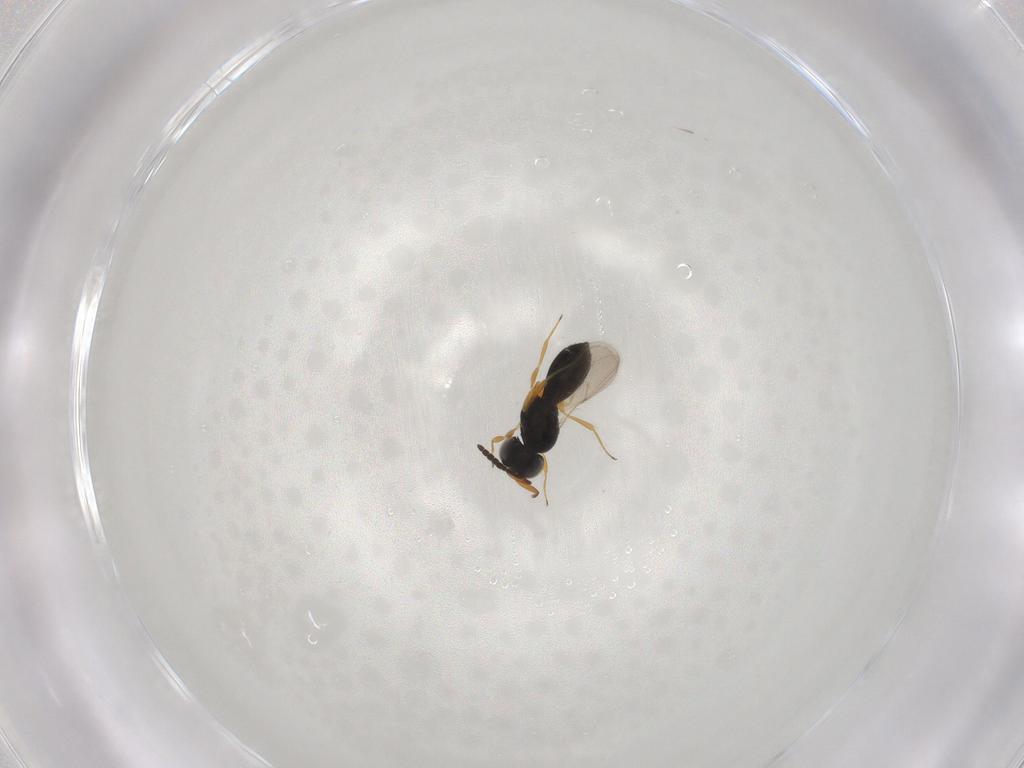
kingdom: Animalia
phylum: Arthropoda
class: Insecta
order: Hymenoptera
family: Scelionidae
